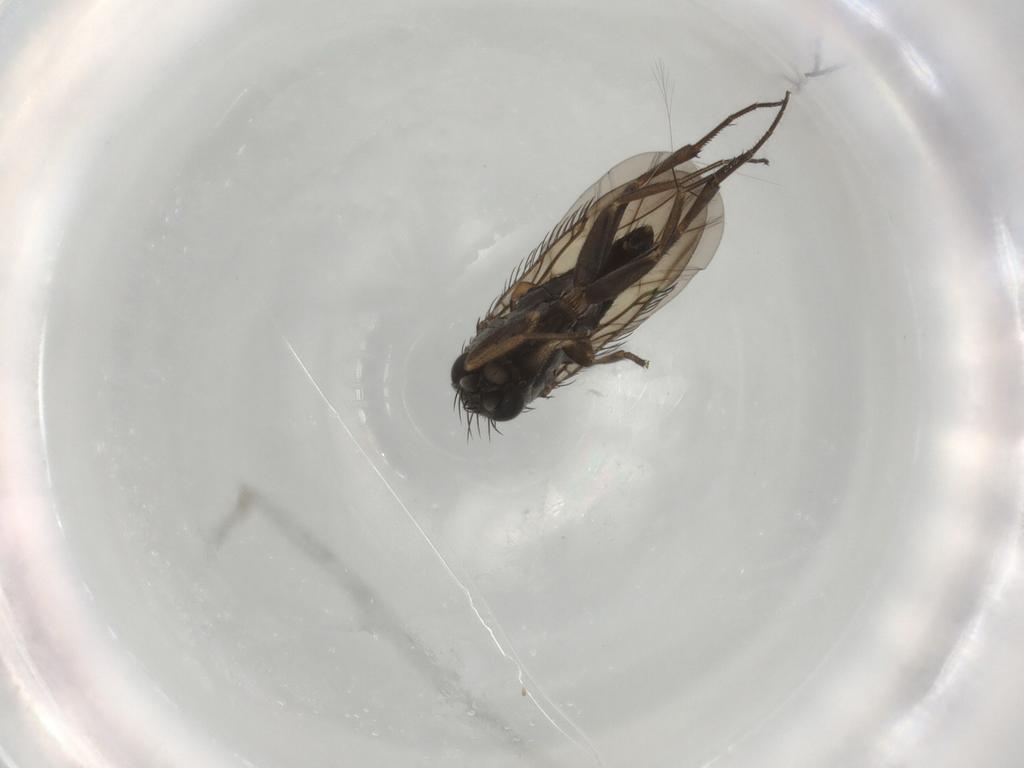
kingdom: Animalia
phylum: Arthropoda
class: Insecta
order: Diptera
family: Phoridae
